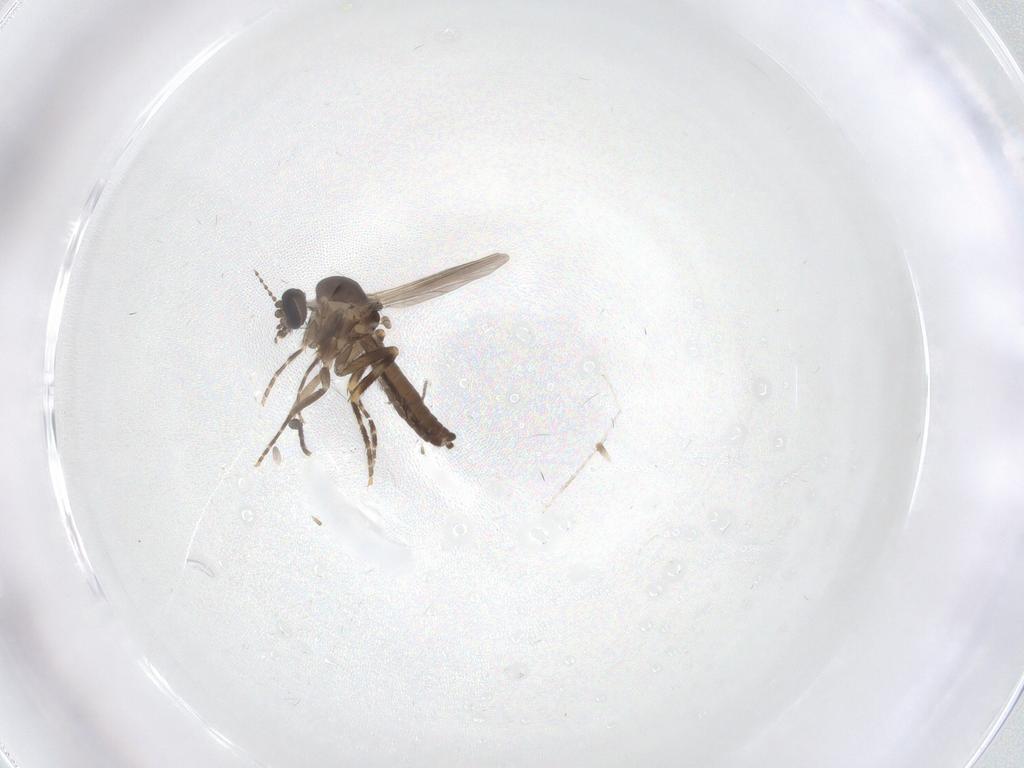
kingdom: Animalia
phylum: Arthropoda
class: Insecta
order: Diptera
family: Ceratopogonidae
